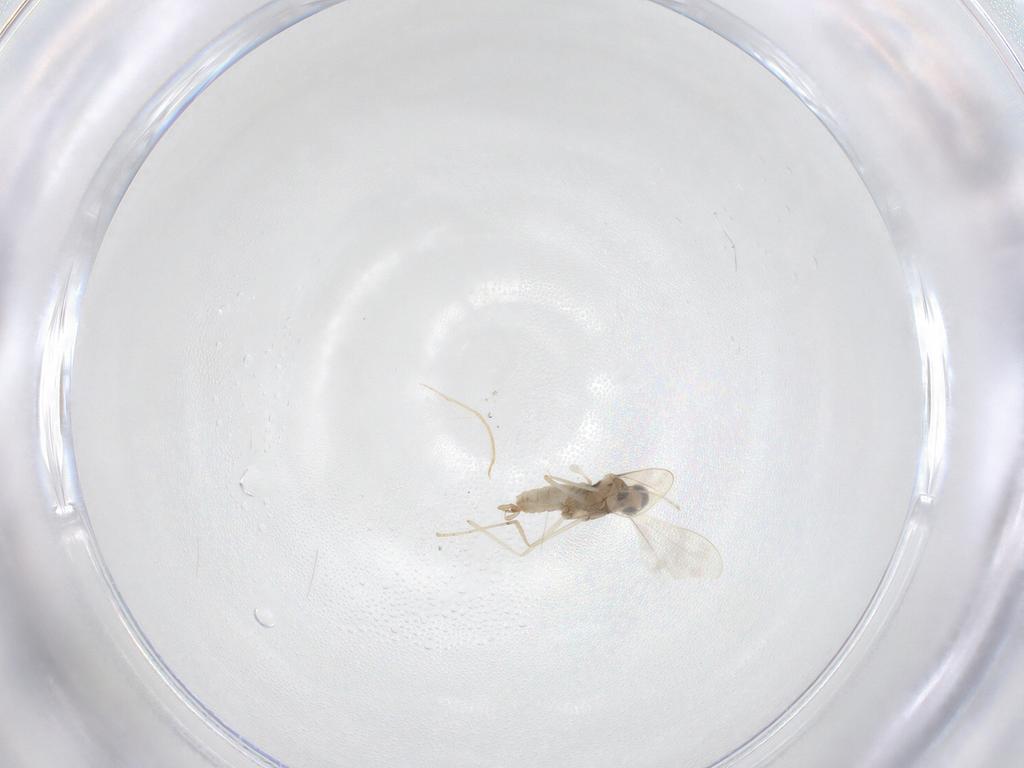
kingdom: Animalia
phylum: Arthropoda
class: Insecta
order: Diptera
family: Cecidomyiidae
